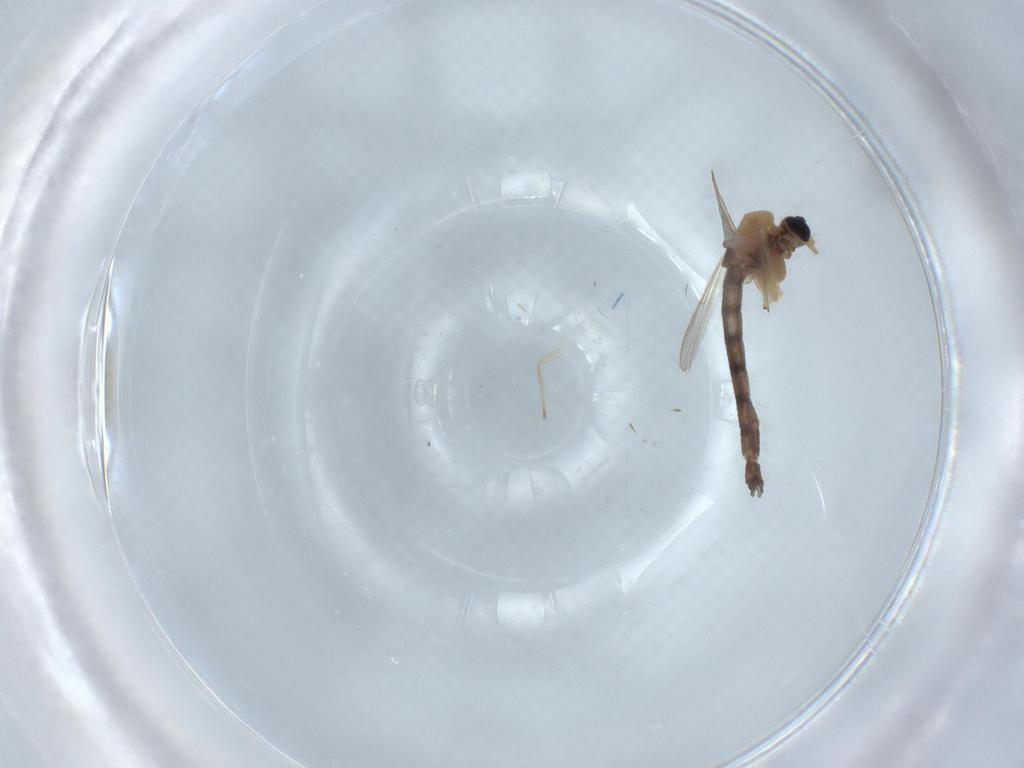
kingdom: Animalia
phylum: Arthropoda
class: Insecta
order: Diptera
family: Chironomidae
